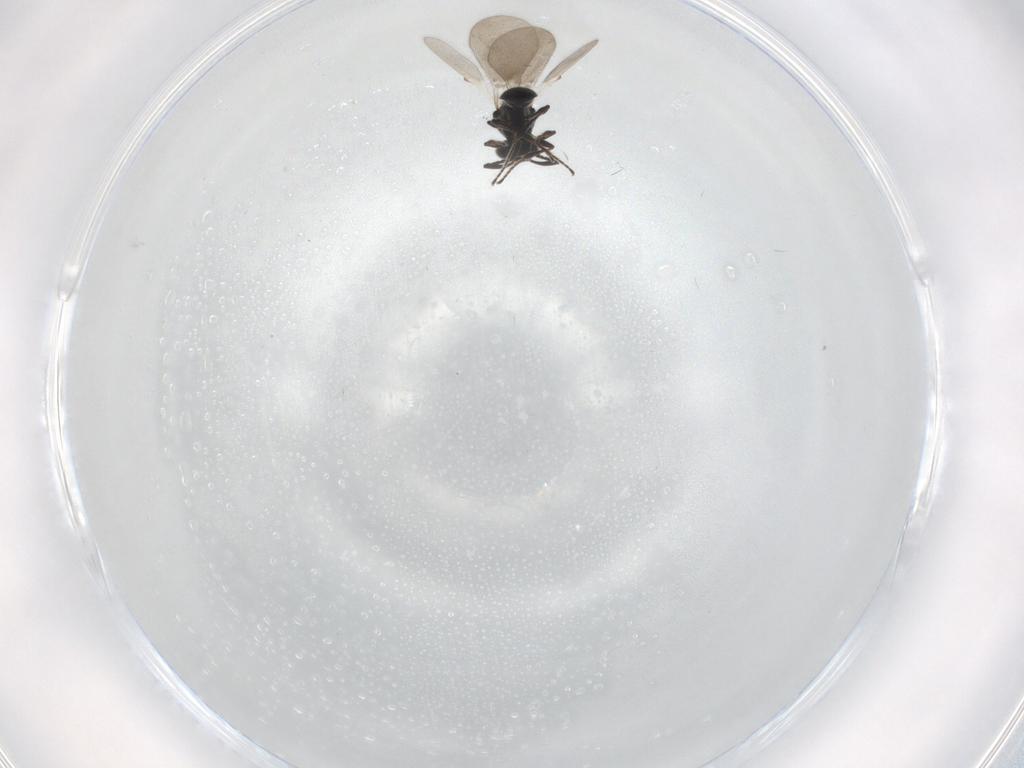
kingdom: Animalia
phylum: Arthropoda
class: Insecta
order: Hymenoptera
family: Platygastridae
